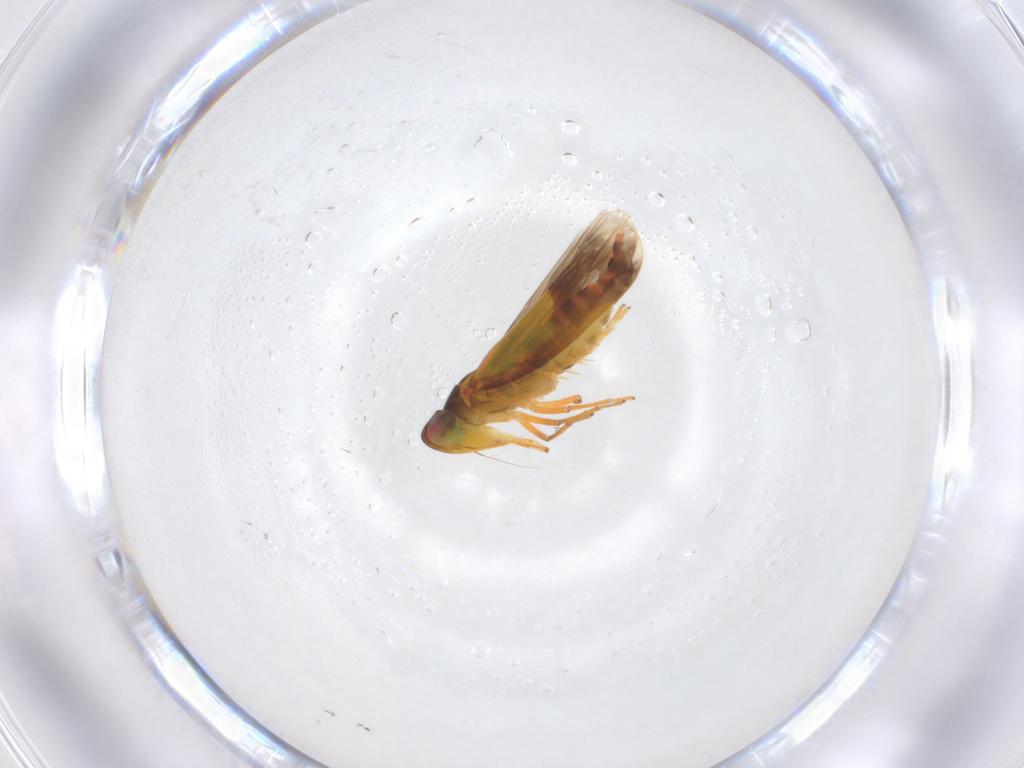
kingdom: Animalia
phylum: Arthropoda
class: Insecta
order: Hemiptera
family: Cicadellidae
